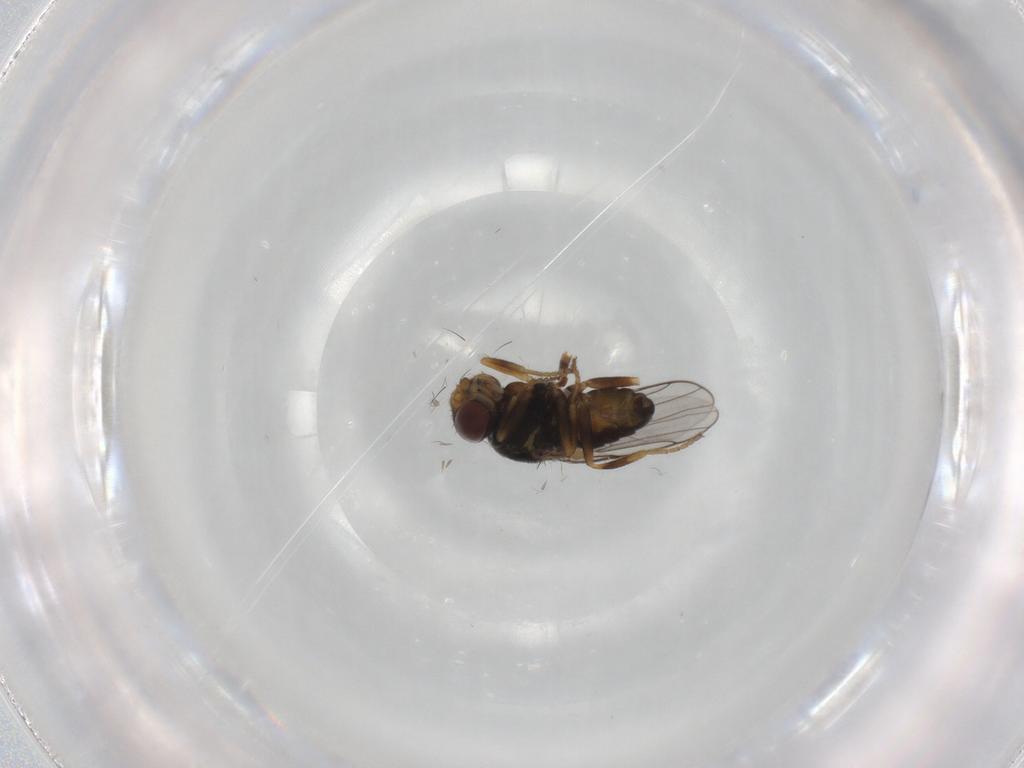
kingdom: Animalia
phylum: Arthropoda
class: Insecta
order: Diptera
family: Chloropidae
